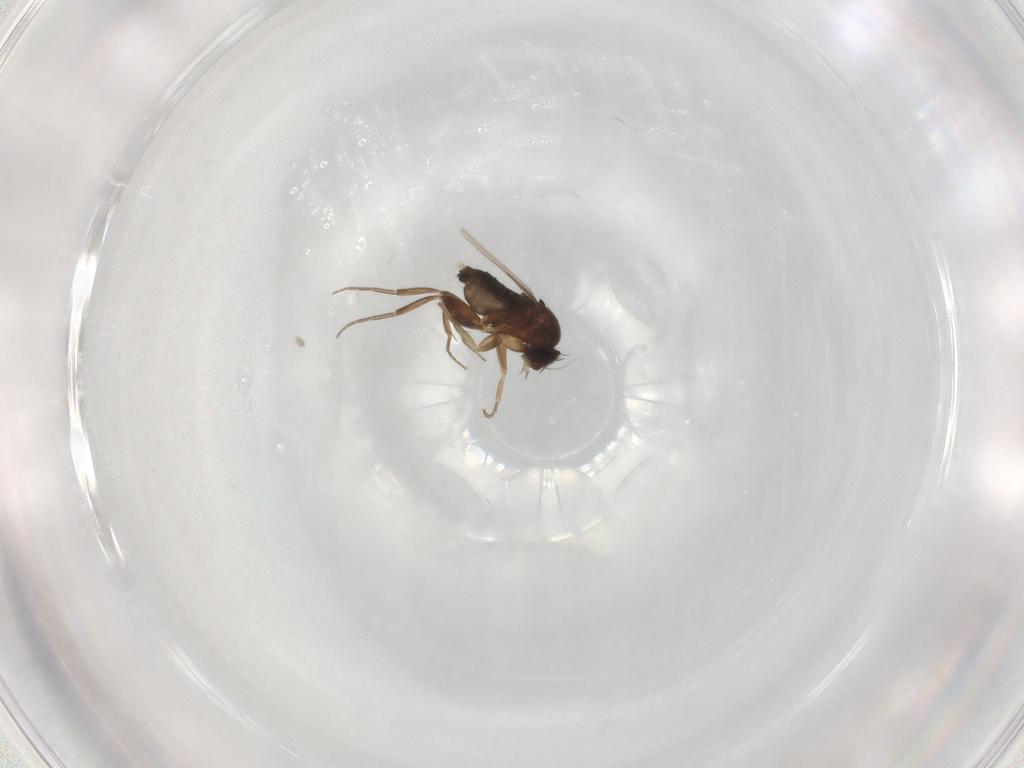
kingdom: Animalia
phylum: Arthropoda
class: Insecta
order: Diptera
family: Phoridae
